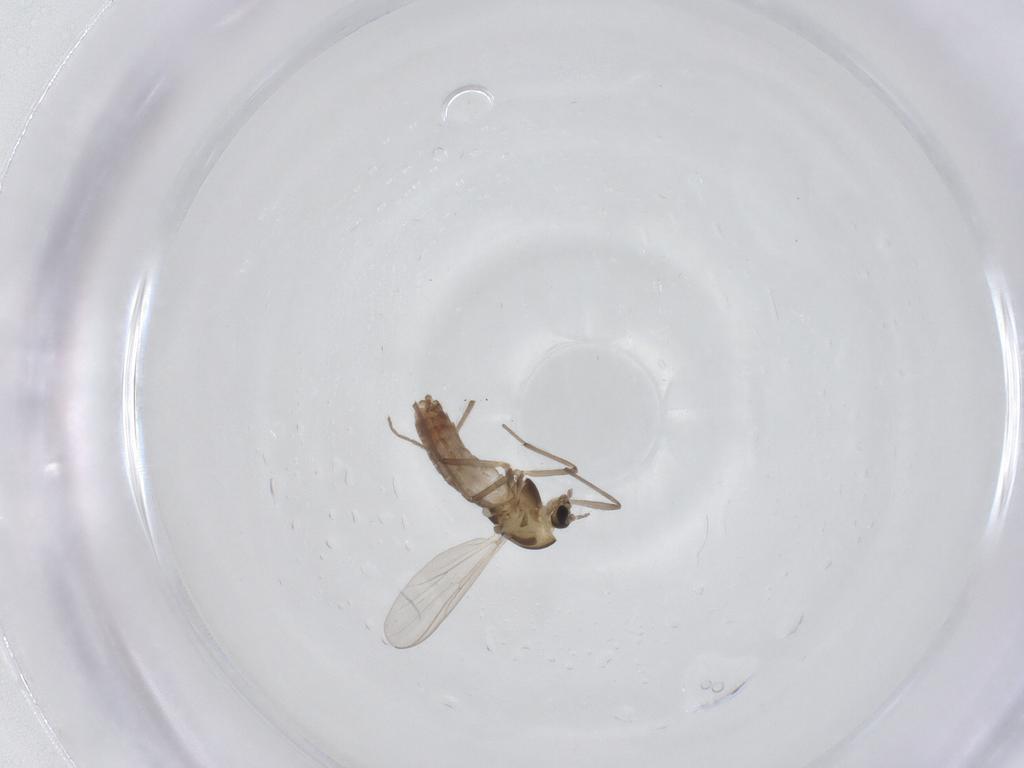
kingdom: Animalia
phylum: Arthropoda
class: Insecta
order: Diptera
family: Chironomidae
